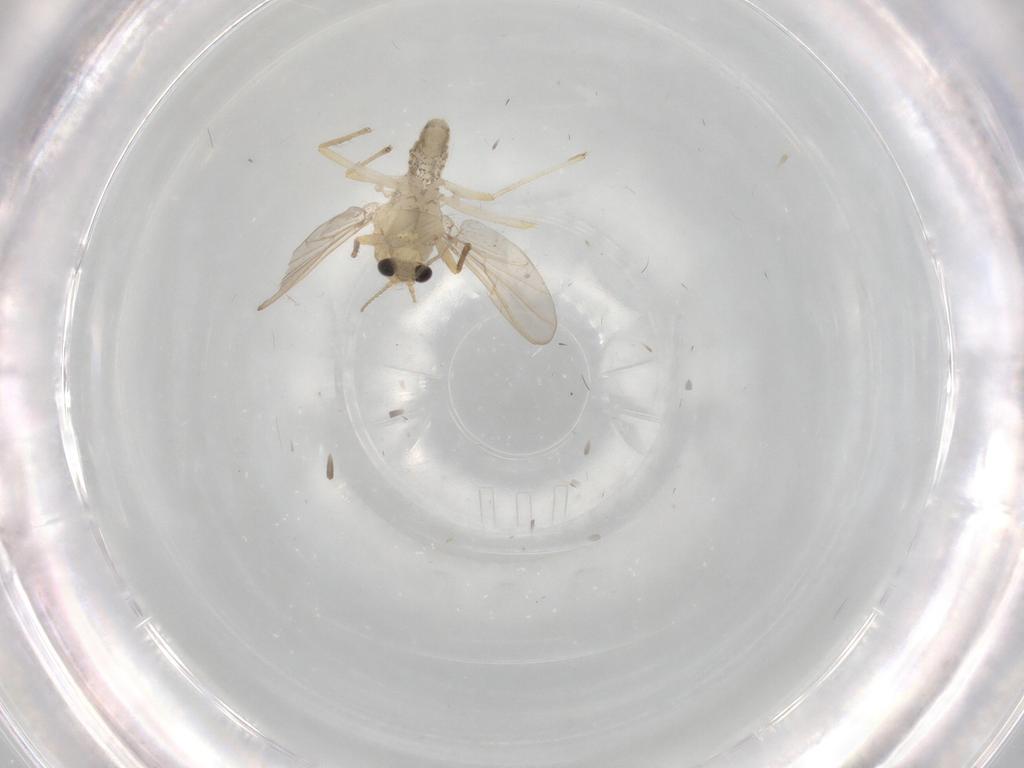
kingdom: Animalia
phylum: Arthropoda
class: Insecta
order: Diptera
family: Chironomidae
